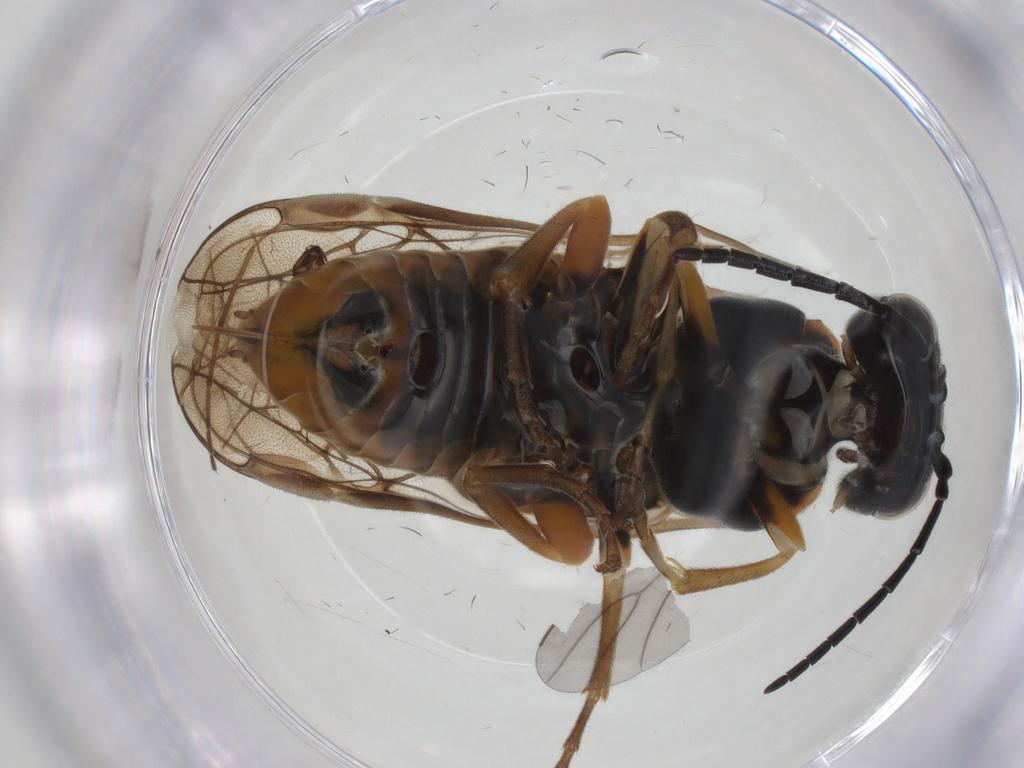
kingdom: Animalia
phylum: Arthropoda
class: Insecta
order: Hymenoptera
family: Tenthredinidae
